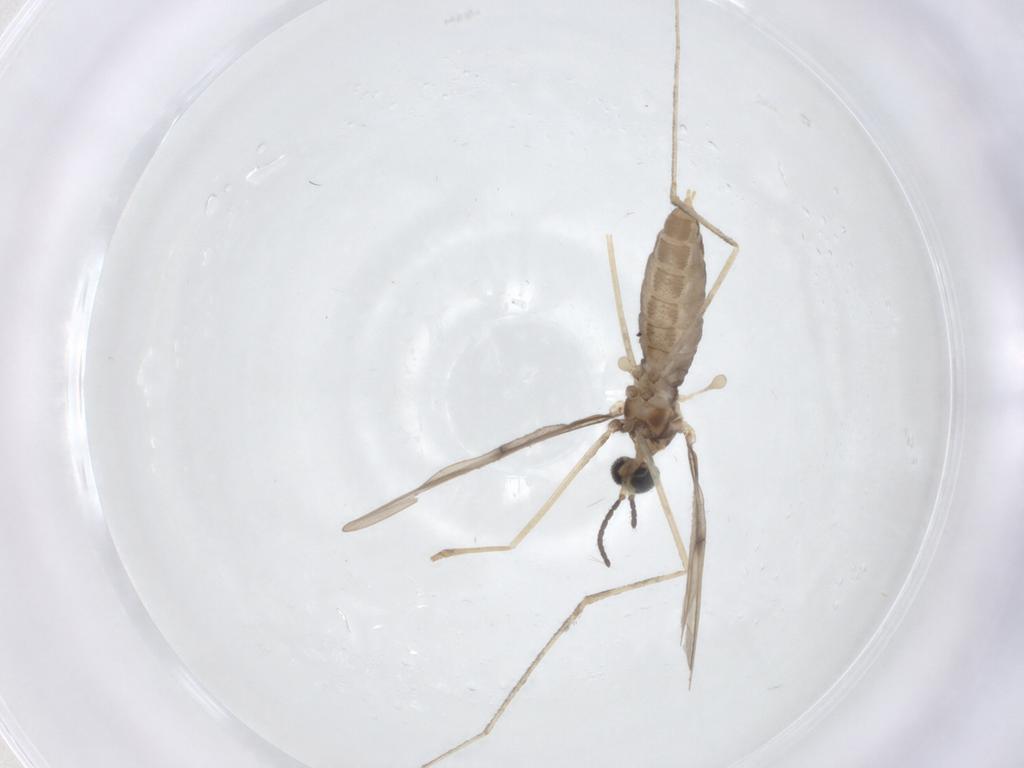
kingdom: Animalia
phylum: Arthropoda
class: Insecta
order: Diptera
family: Cecidomyiidae
